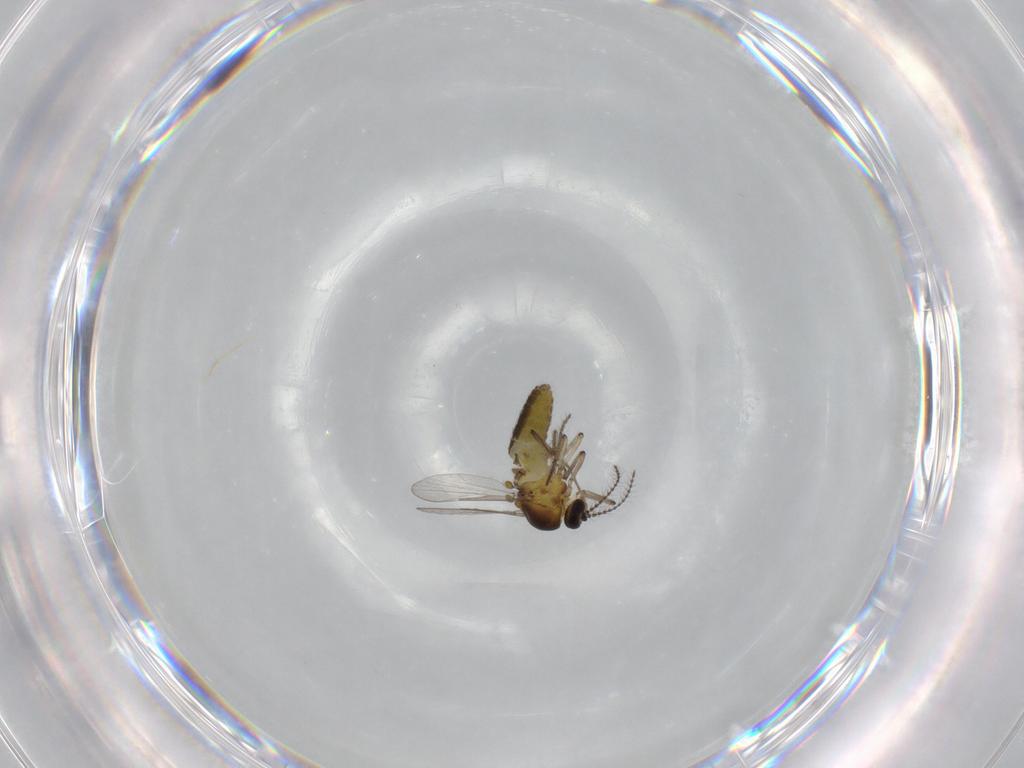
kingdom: Animalia
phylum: Arthropoda
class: Insecta
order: Diptera
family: Ceratopogonidae
